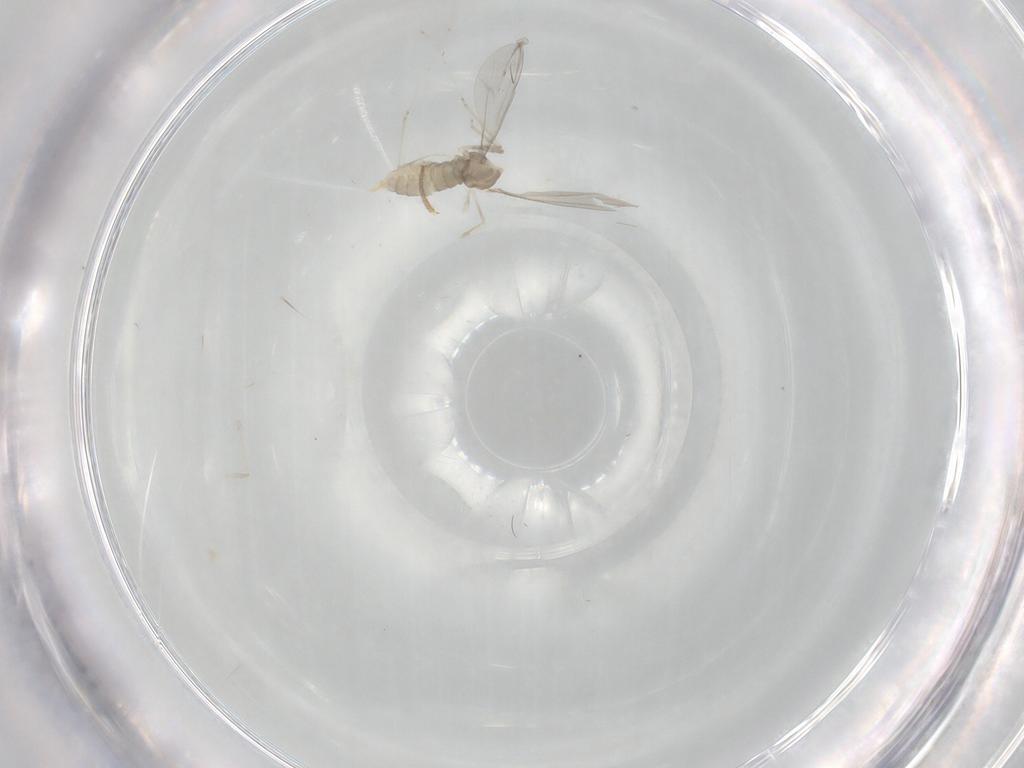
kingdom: Animalia
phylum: Arthropoda
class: Insecta
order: Diptera
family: Cecidomyiidae
